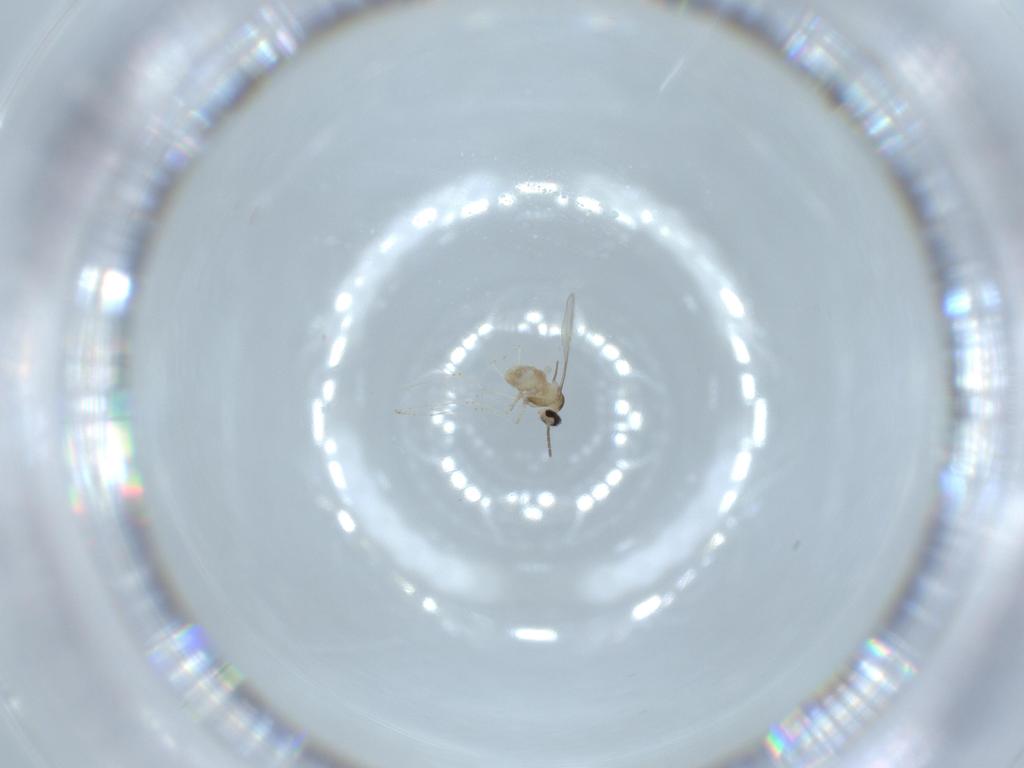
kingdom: Animalia
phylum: Arthropoda
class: Insecta
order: Diptera
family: Cecidomyiidae
